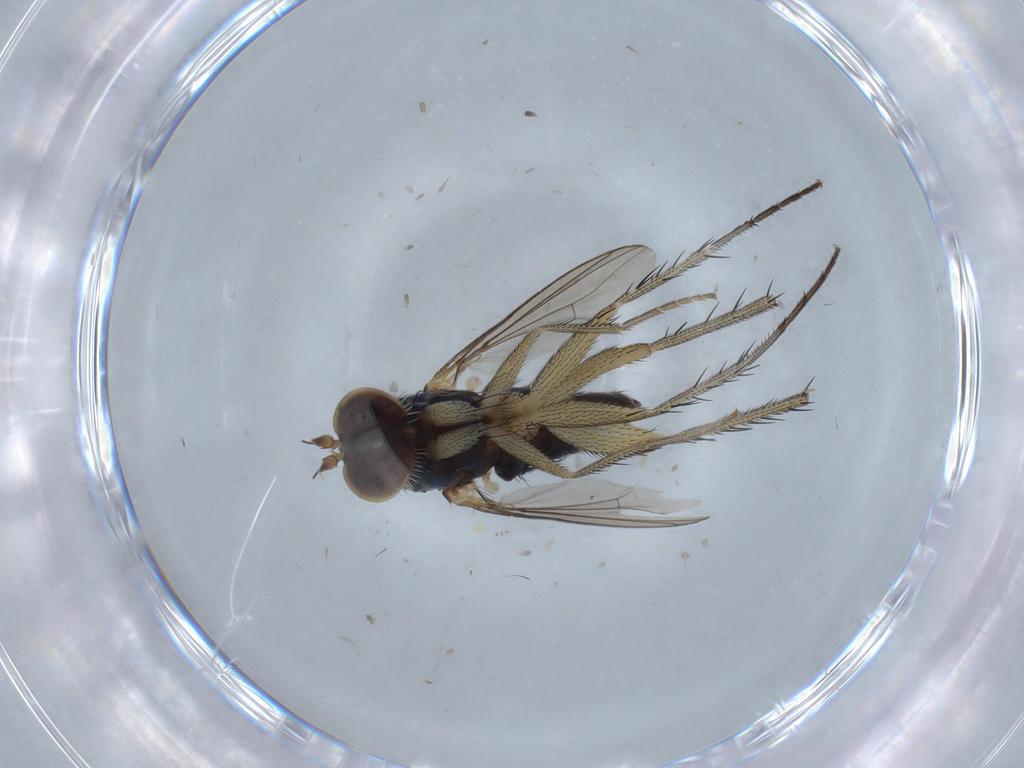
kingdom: Animalia
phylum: Arthropoda
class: Insecta
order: Diptera
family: Dolichopodidae
